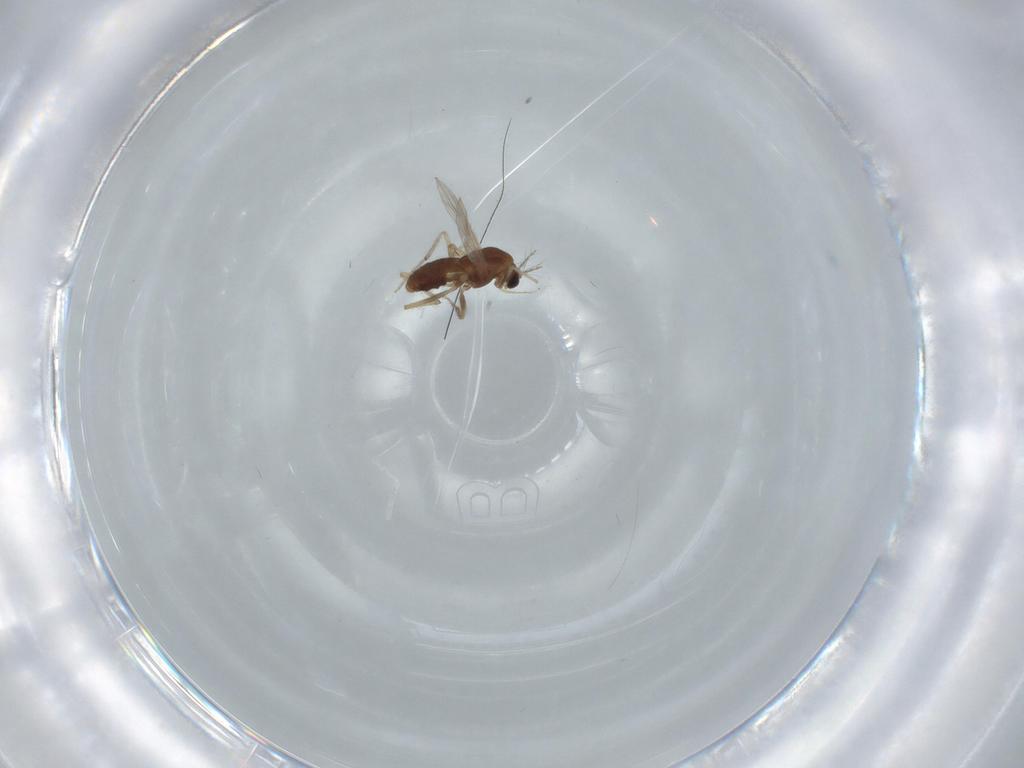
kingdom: Animalia
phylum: Arthropoda
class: Insecta
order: Diptera
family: Chironomidae
